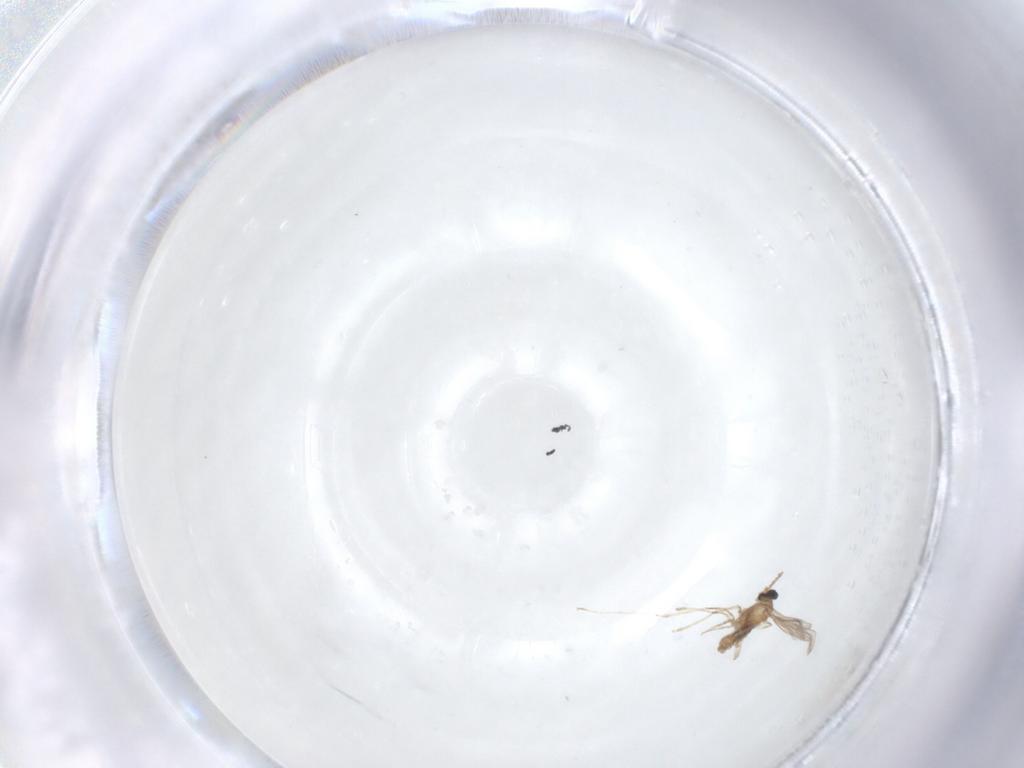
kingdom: Animalia
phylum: Arthropoda
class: Insecta
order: Diptera
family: Cecidomyiidae
